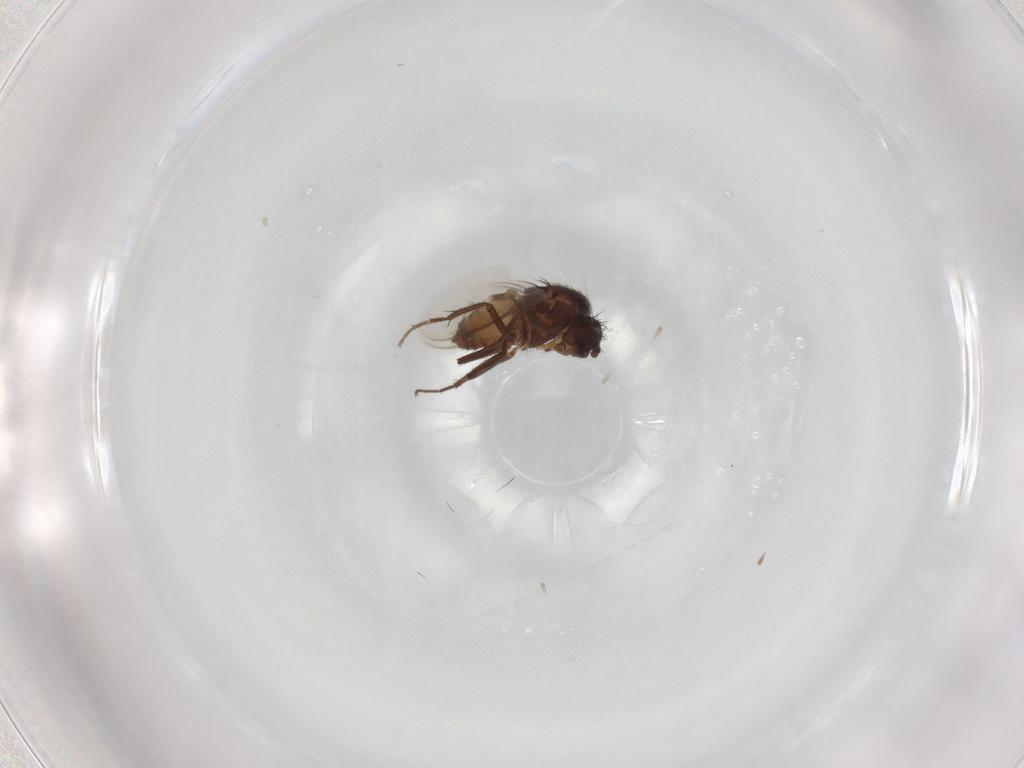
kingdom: Animalia
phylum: Arthropoda
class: Insecta
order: Diptera
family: Sphaeroceridae
